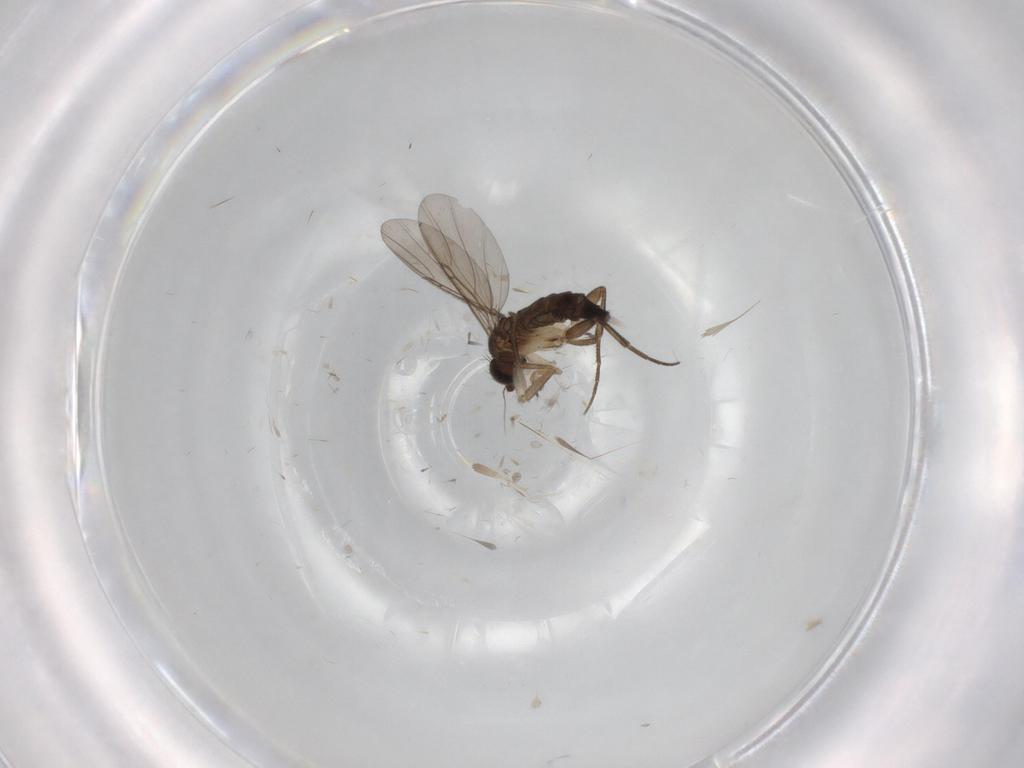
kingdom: Animalia
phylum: Arthropoda
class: Insecta
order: Diptera
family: Phoridae
